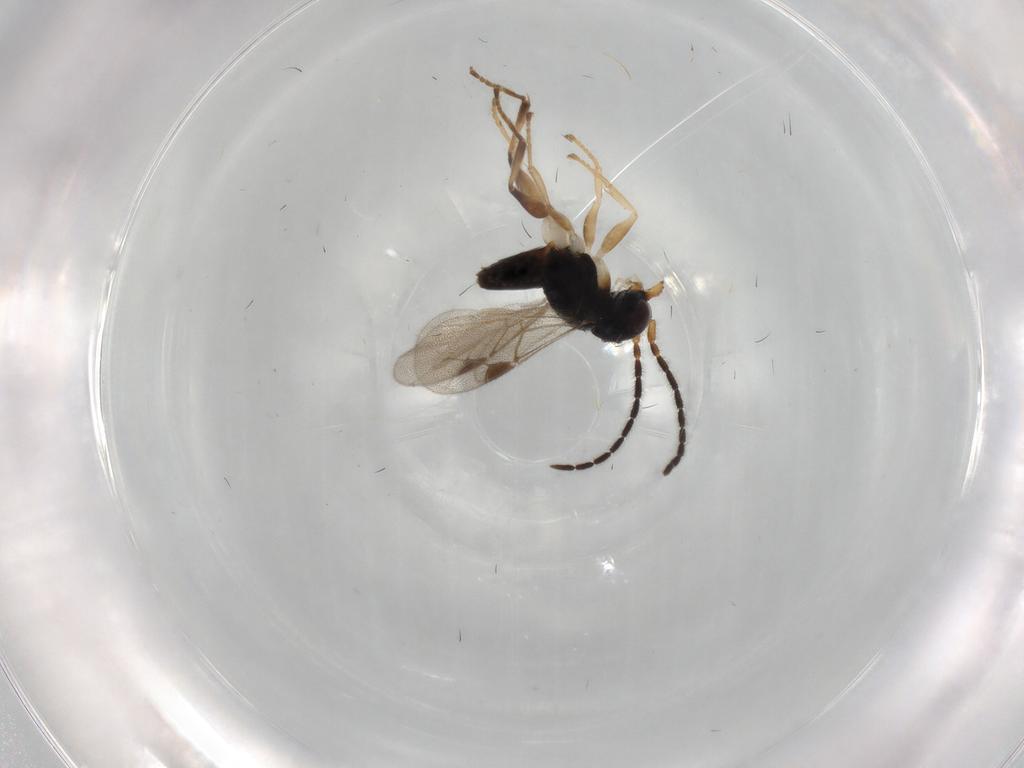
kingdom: Animalia
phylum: Arthropoda
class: Insecta
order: Hymenoptera
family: Dryinidae
